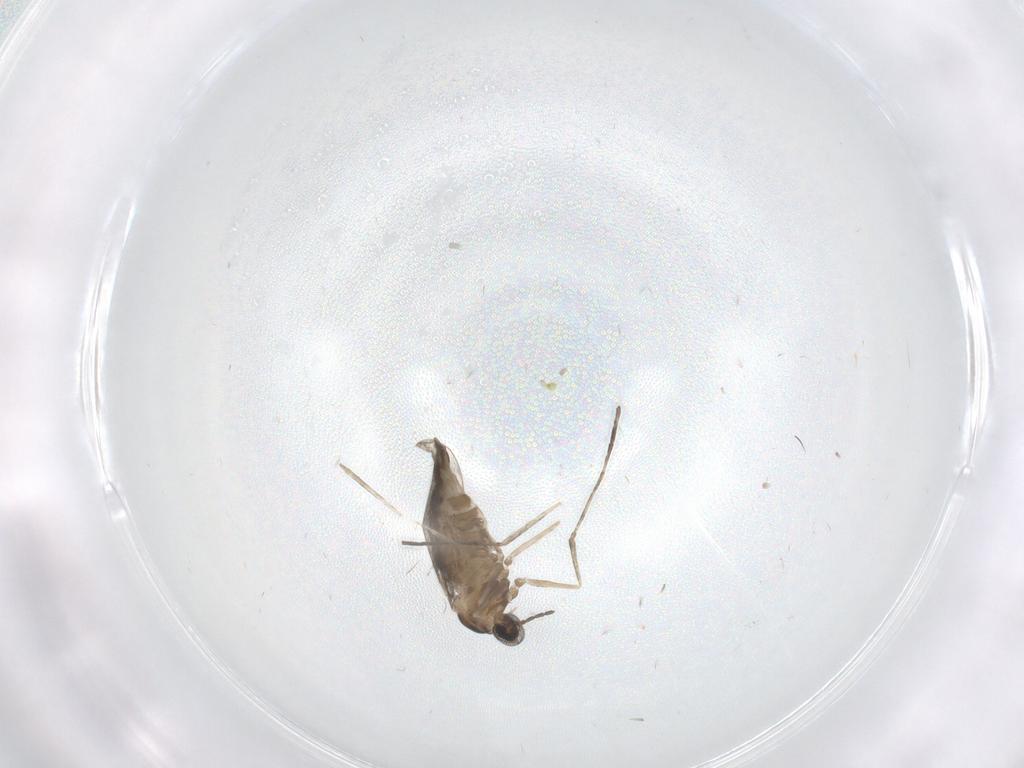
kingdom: Animalia
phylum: Arthropoda
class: Insecta
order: Diptera
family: Cecidomyiidae
